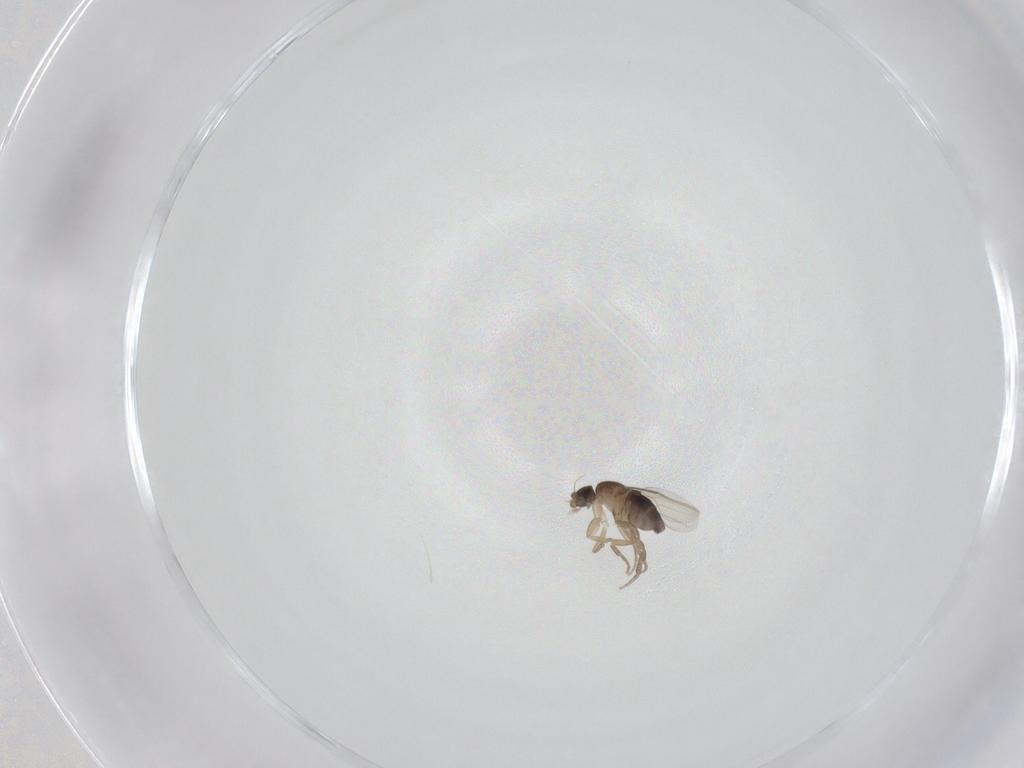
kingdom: Animalia
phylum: Arthropoda
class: Insecta
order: Diptera
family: Phoridae
